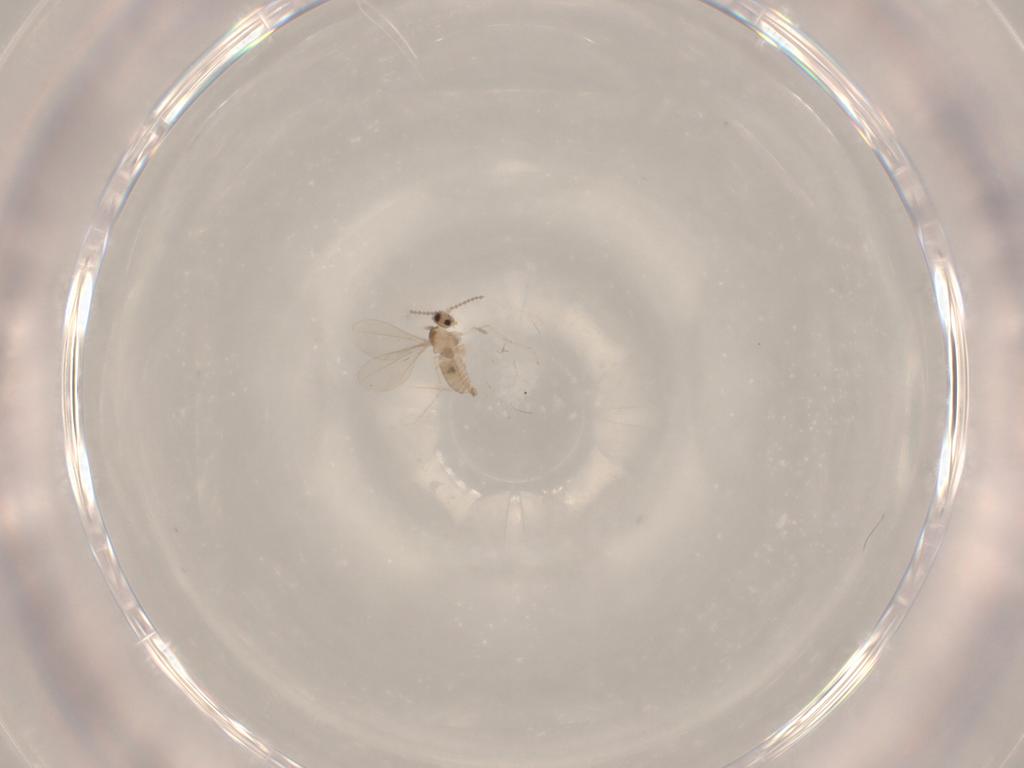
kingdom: Animalia
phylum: Arthropoda
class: Insecta
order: Diptera
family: Cecidomyiidae
